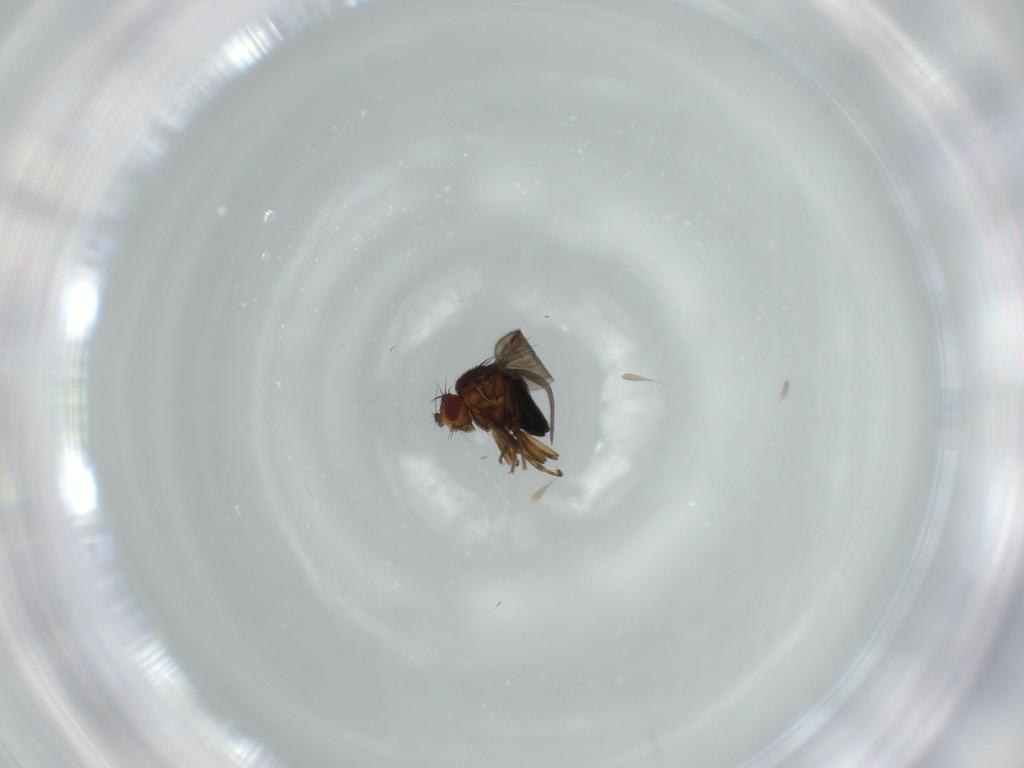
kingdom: Animalia
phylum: Arthropoda
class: Insecta
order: Diptera
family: Sphaeroceridae
